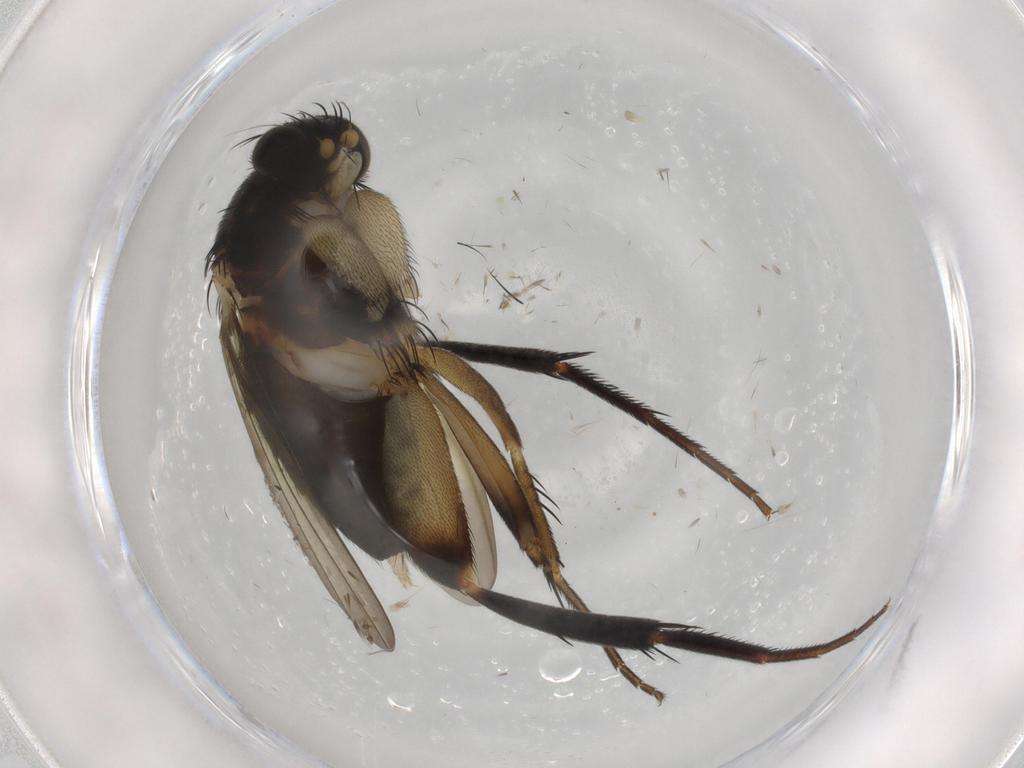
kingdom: Animalia
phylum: Arthropoda
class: Insecta
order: Diptera
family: Phoridae
